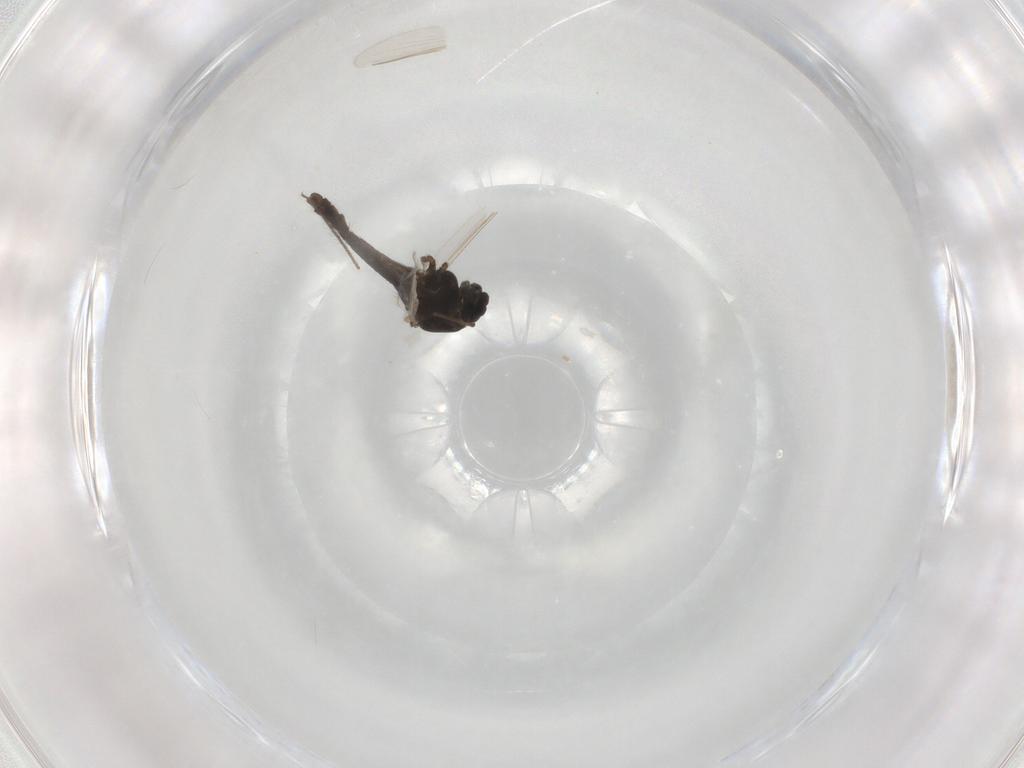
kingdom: Animalia
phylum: Arthropoda
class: Insecta
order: Diptera
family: Chironomidae
